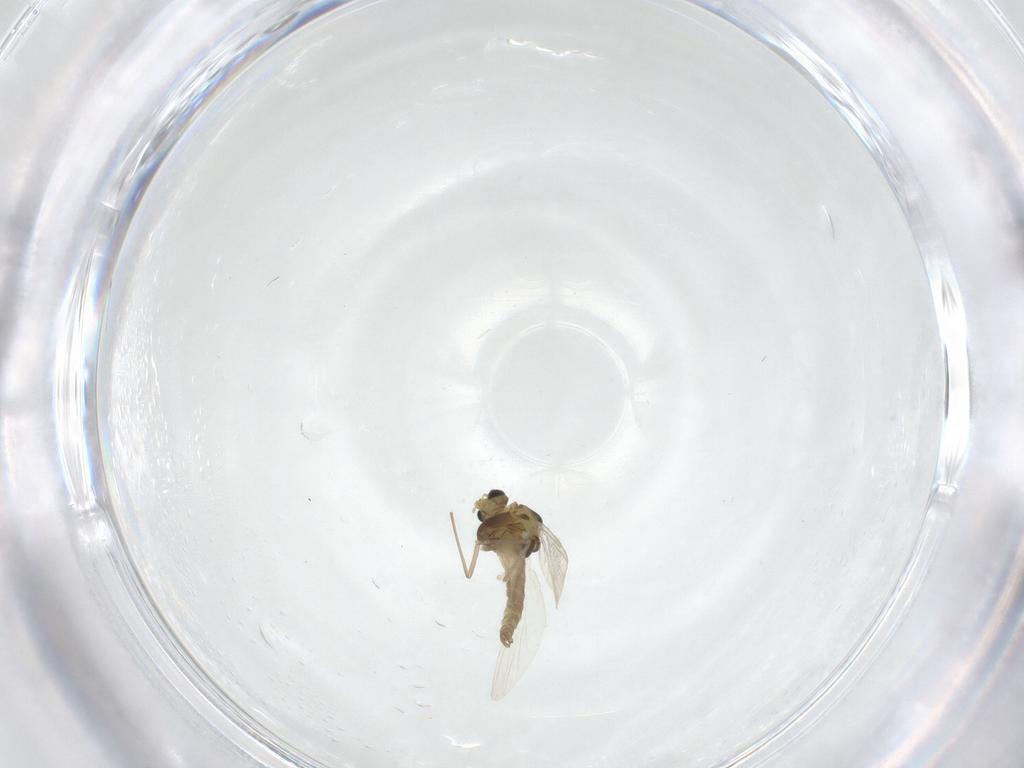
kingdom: Animalia
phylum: Arthropoda
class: Insecta
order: Diptera
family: Chironomidae
